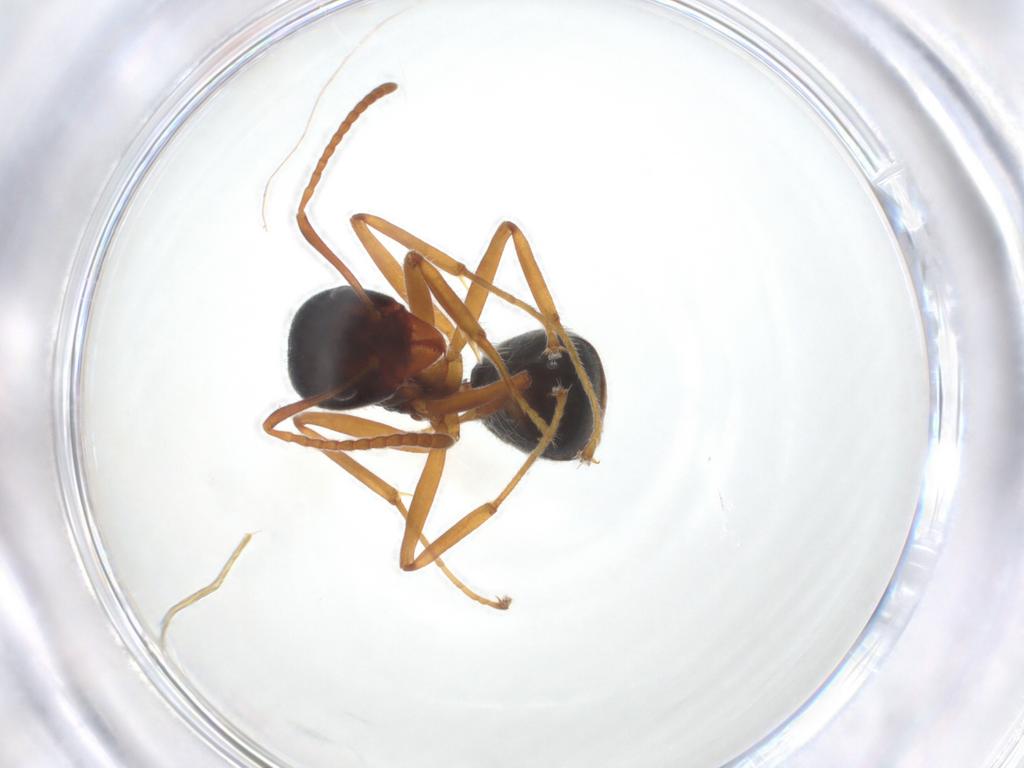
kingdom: Animalia
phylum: Arthropoda
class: Insecta
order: Hymenoptera
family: Formicidae
